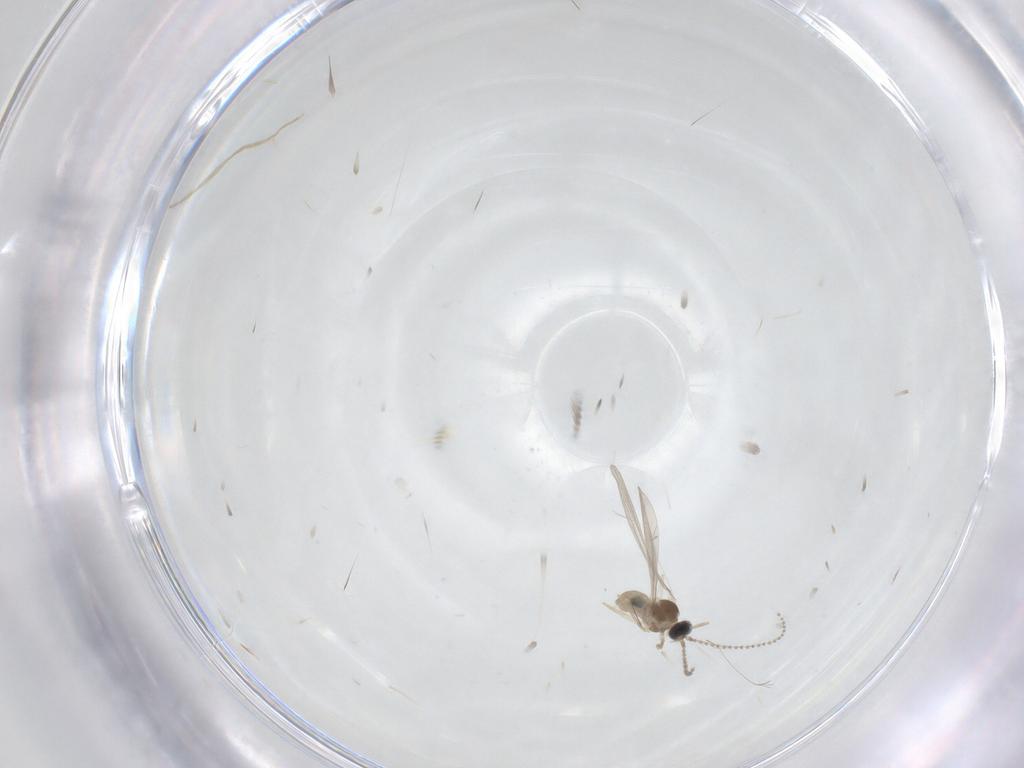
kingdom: Animalia
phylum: Arthropoda
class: Insecta
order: Diptera
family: Cecidomyiidae
